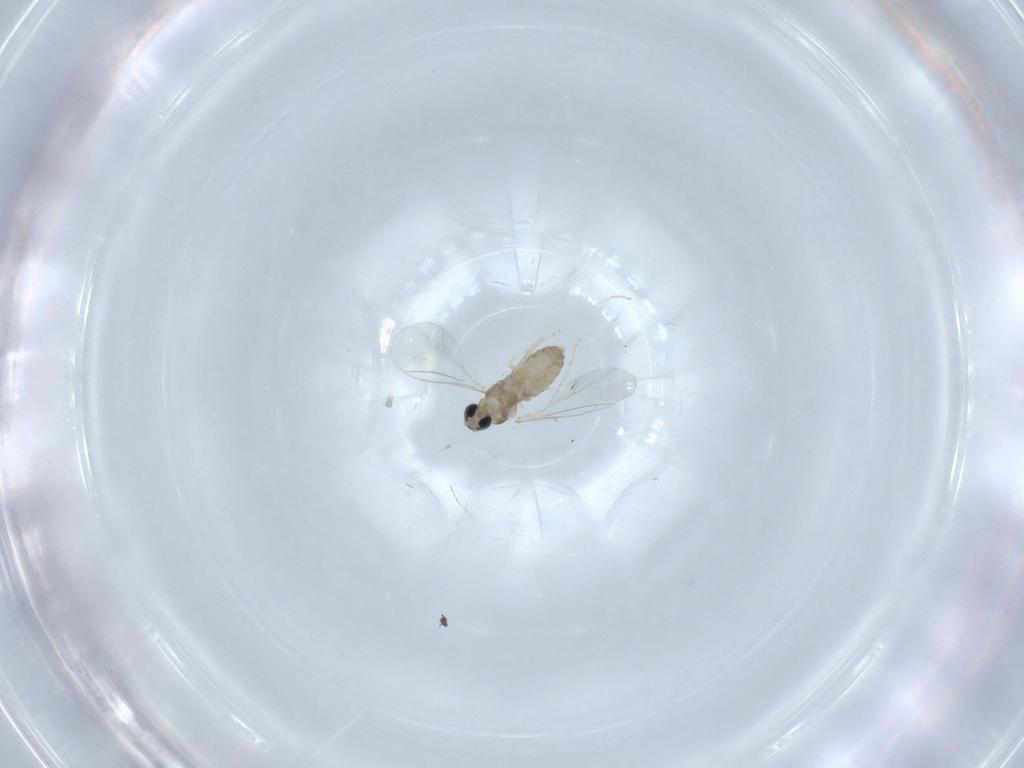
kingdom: Animalia
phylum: Arthropoda
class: Insecta
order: Diptera
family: Cecidomyiidae
